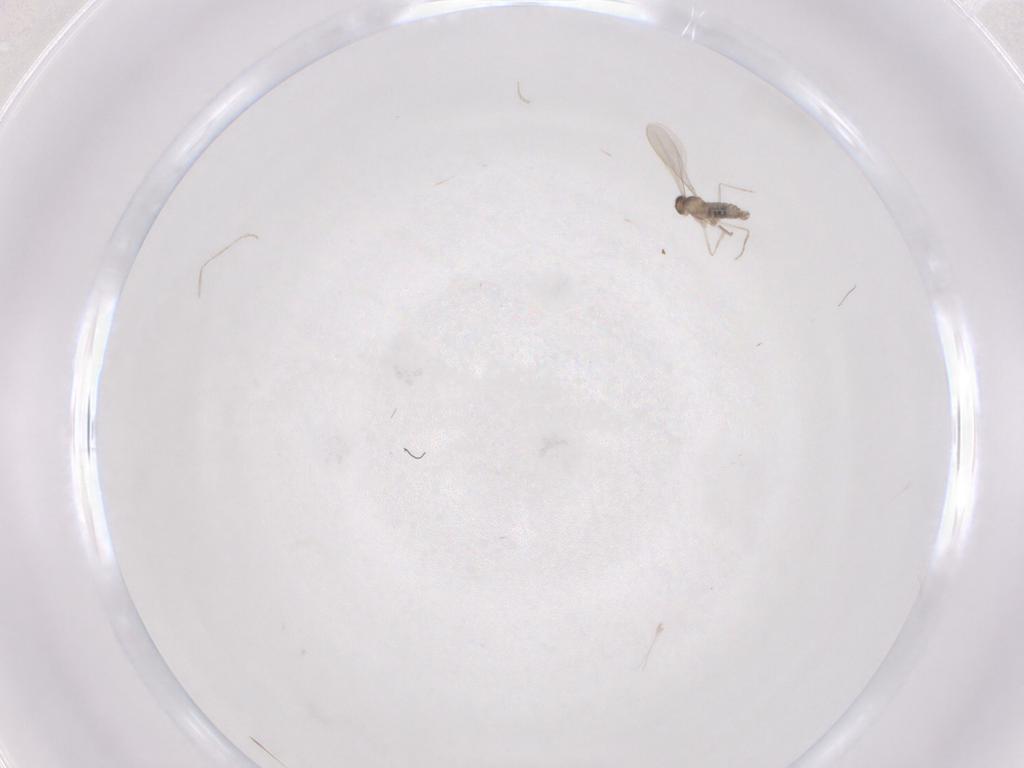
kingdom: Animalia
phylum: Arthropoda
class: Insecta
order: Diptera
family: Cecidomyiidae
